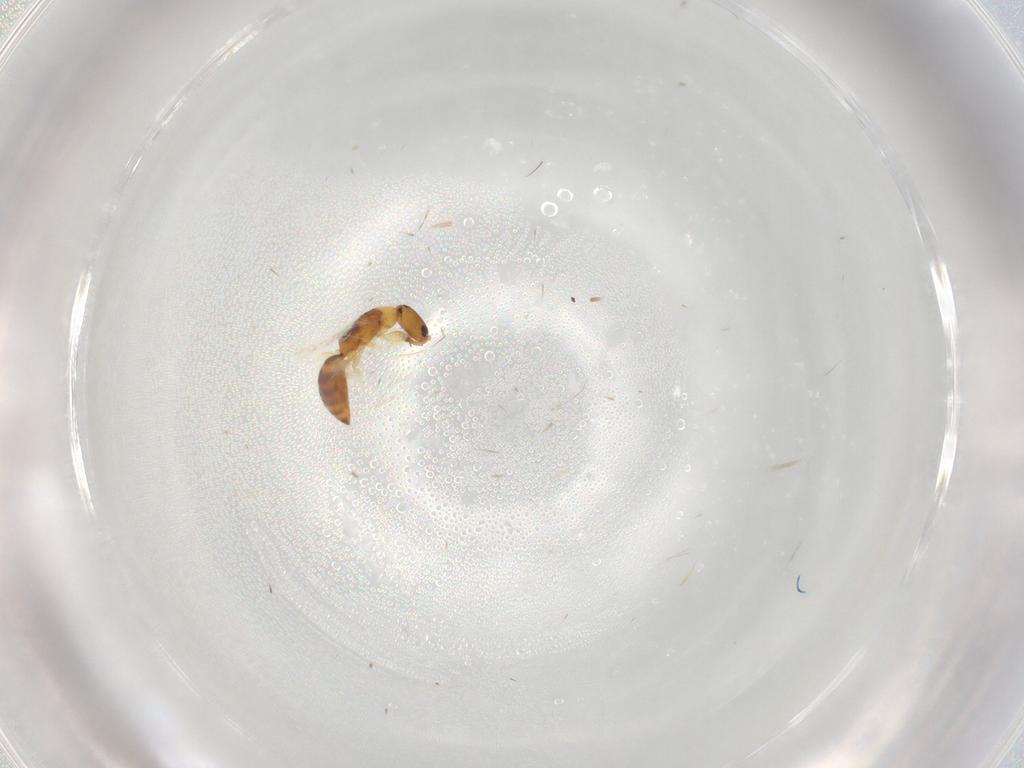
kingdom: Animalia
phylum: Arthropoda
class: Insecta
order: Hymenoptera
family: Bethylidae
